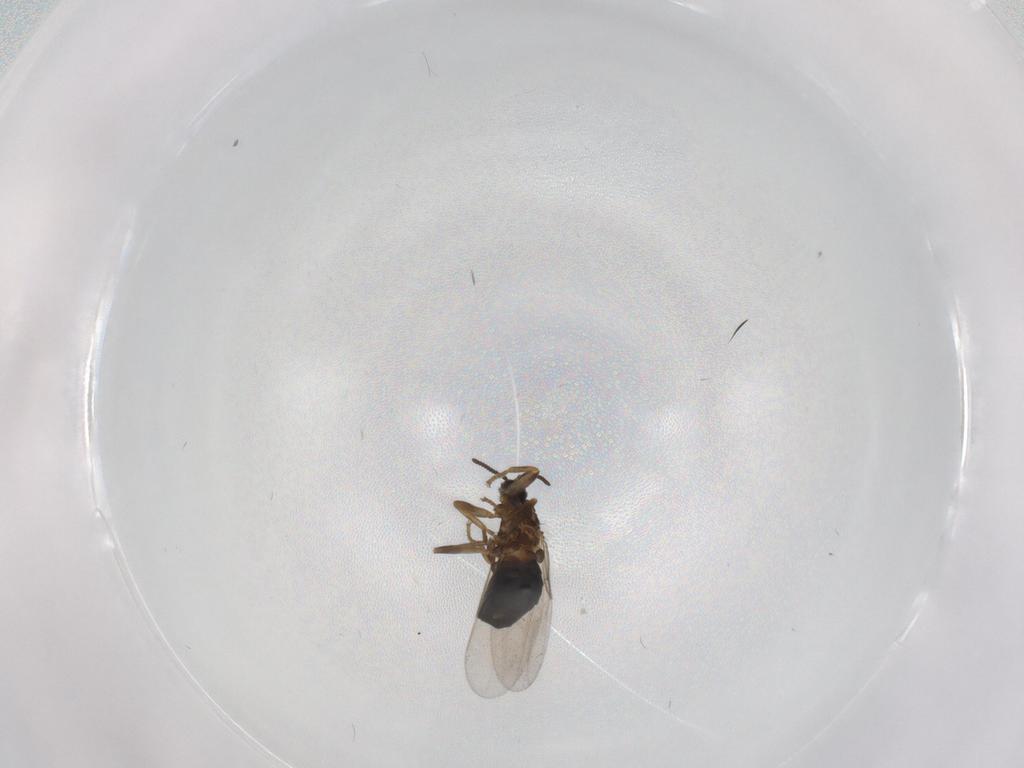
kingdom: Animalia
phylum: Arthropoda
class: Insecta
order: Diptera
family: Scatopsidae
